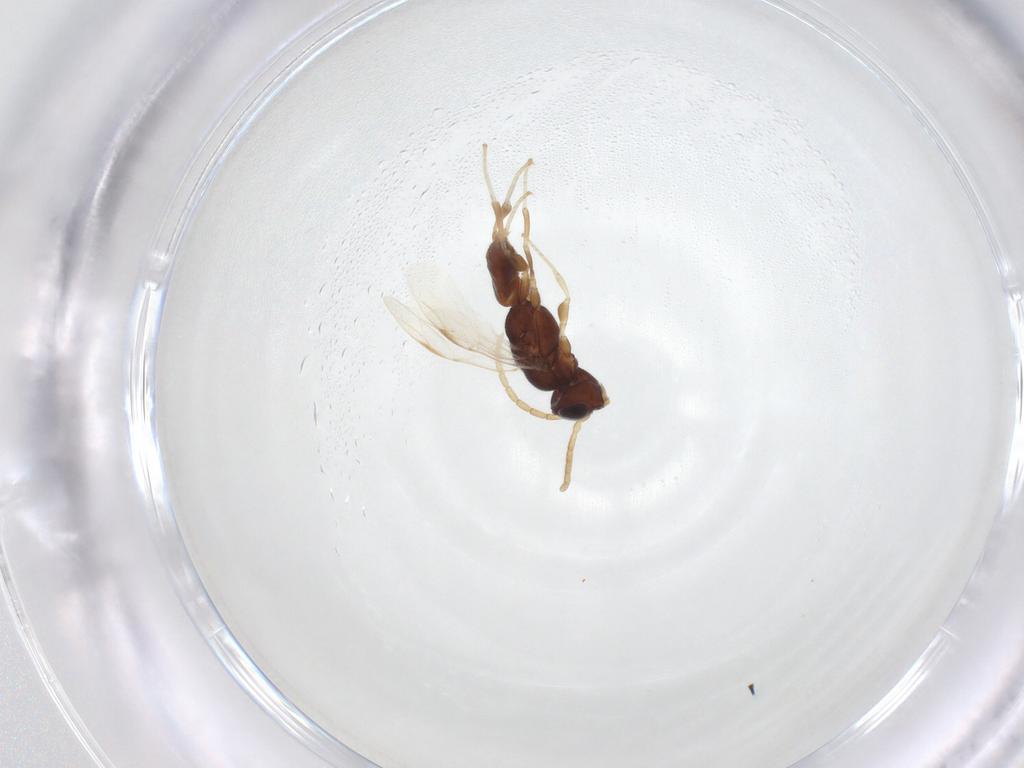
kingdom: Animalia
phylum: Arthropoda
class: Insecta
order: Hymenoptera
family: Dryinidae
